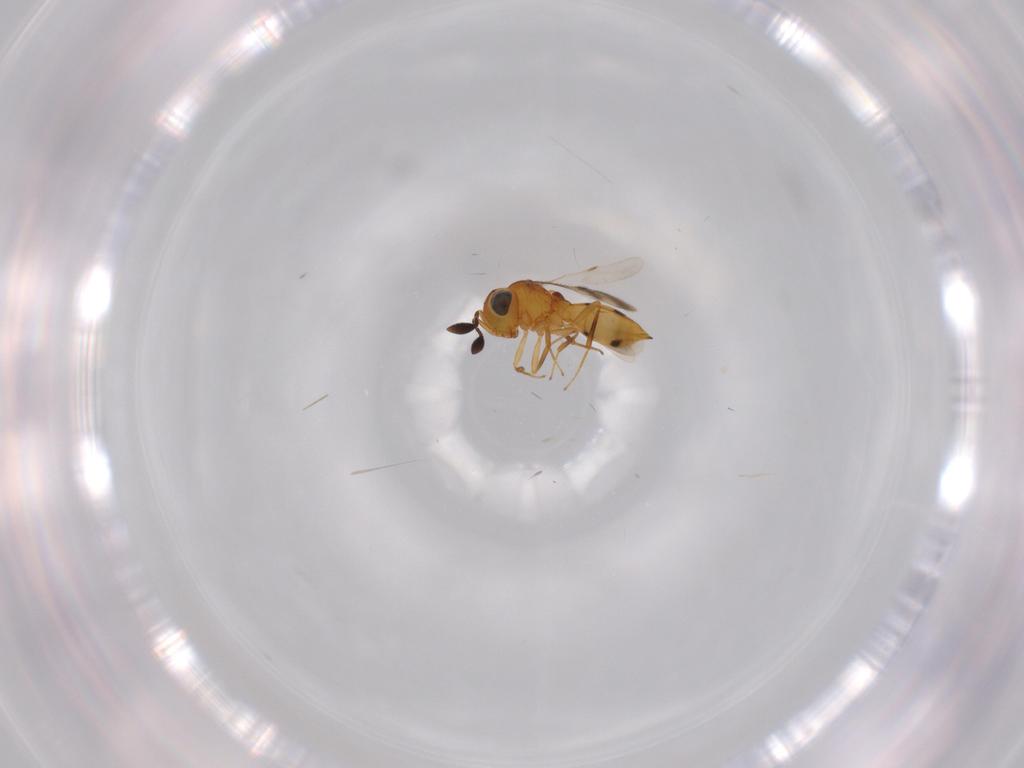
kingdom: Animalia
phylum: Arthropoda
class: Insecta
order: Hymenoptera
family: Scelionidae
